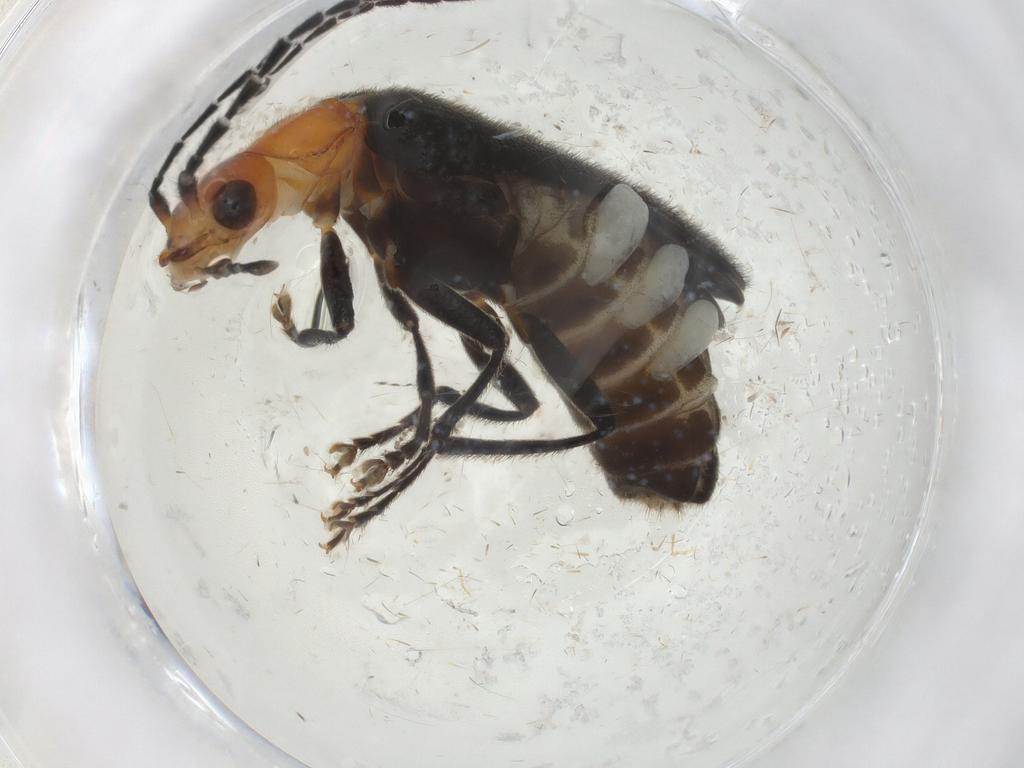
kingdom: Animalia
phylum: Arthropoda
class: Insecta
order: Coleoptera
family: Cantharidae
